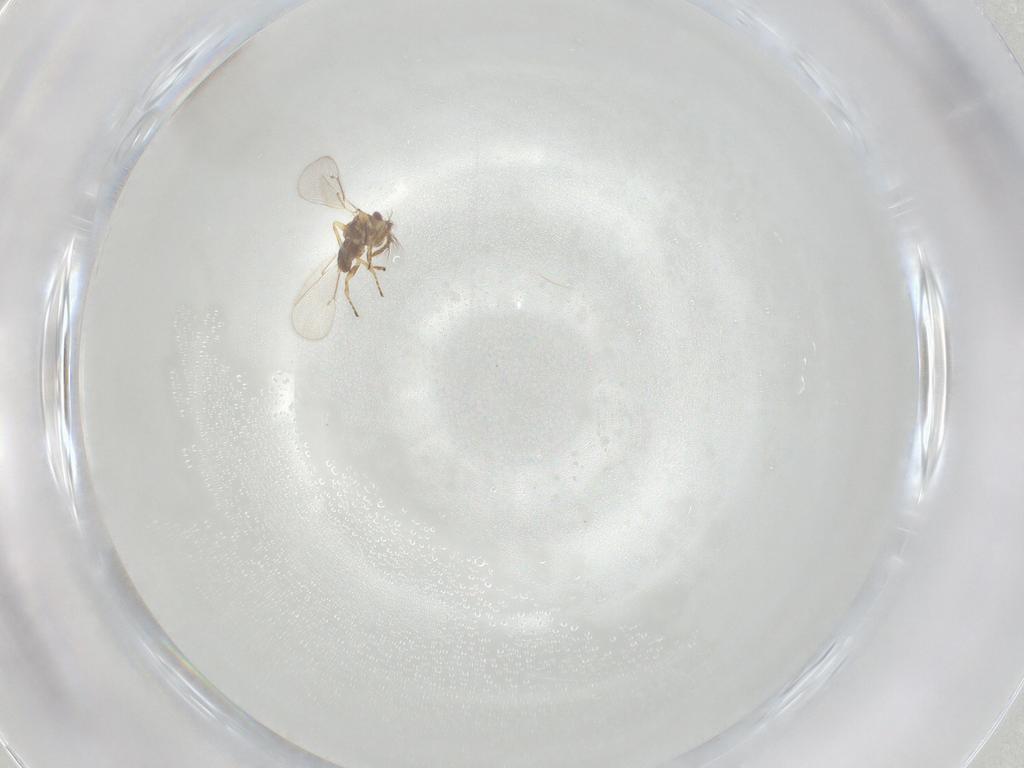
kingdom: Animalia
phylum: Arthropoda
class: Insecta
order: Hymenoptera
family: Eulophidae
